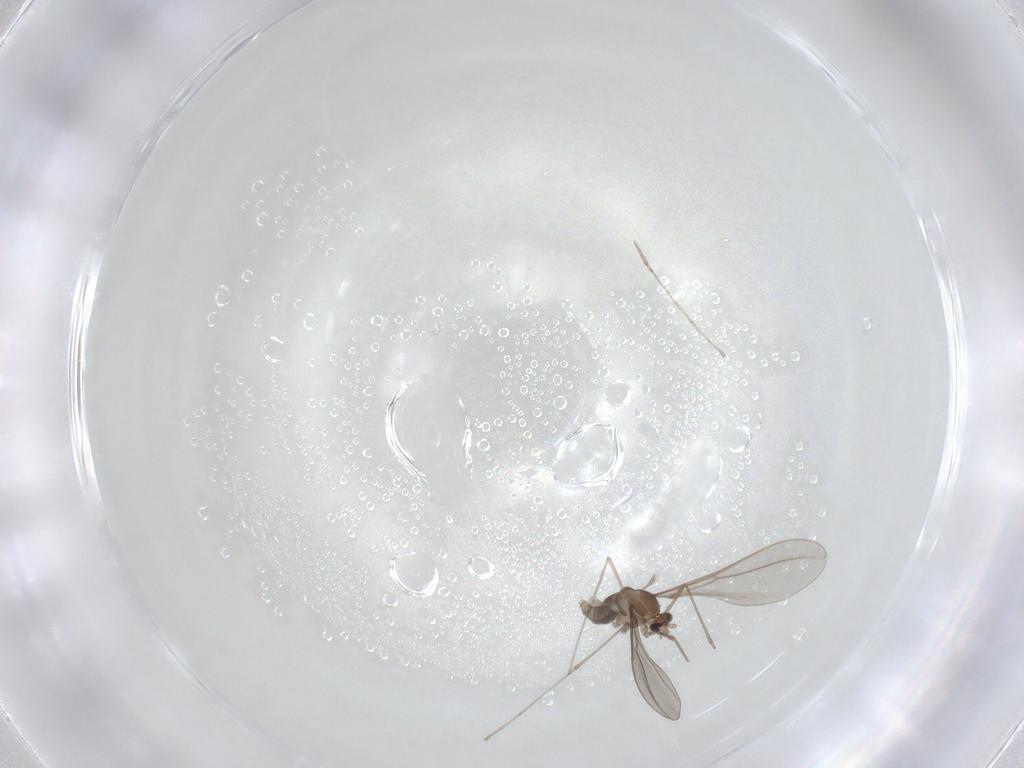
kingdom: Animalia
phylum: Arthropoda
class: Insecta
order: Diptera
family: Cecidomyiidae
